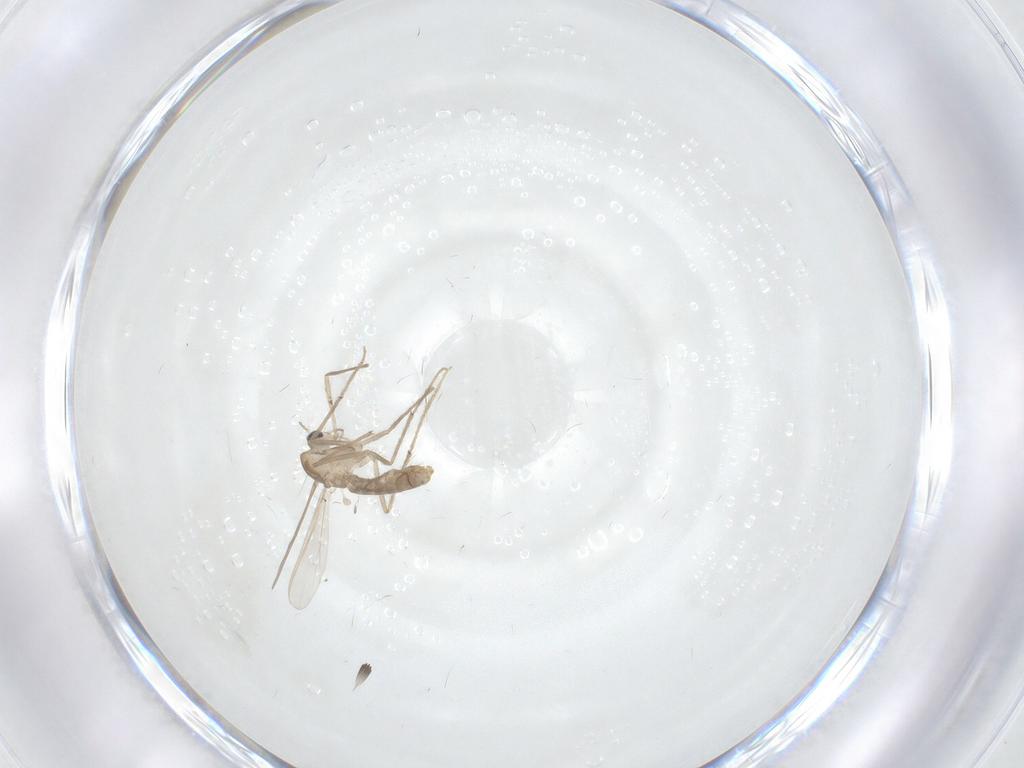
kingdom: Animalia
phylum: Arthropoda
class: Insecta
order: Diptera
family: Chironomidae
